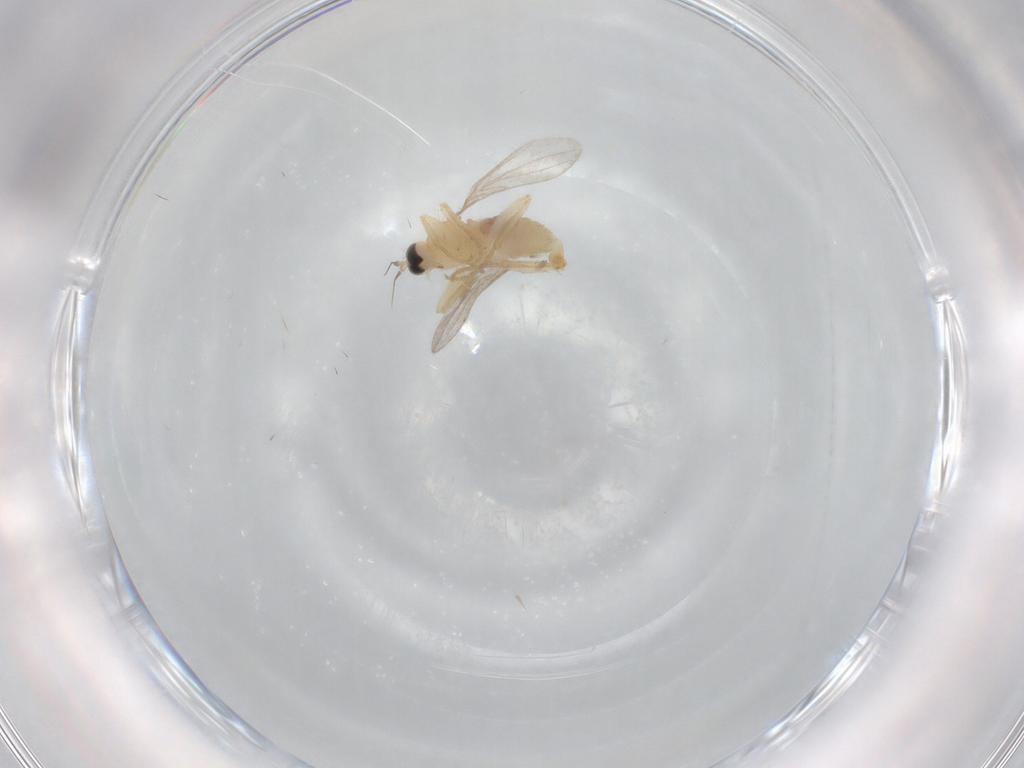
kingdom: Animalia
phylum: Arthropoda
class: Insecta
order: Diptera
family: Hybotidae
